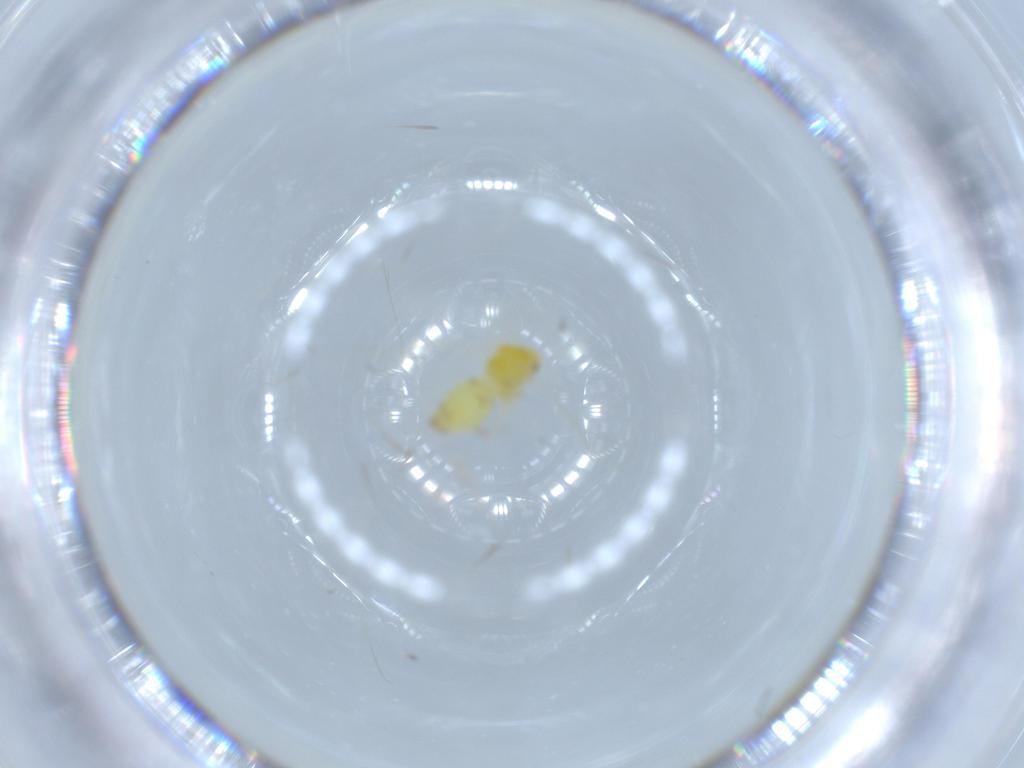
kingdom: Animalia
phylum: Arthropoda
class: Insecta
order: Hemiptera
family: Aleyrodidae
